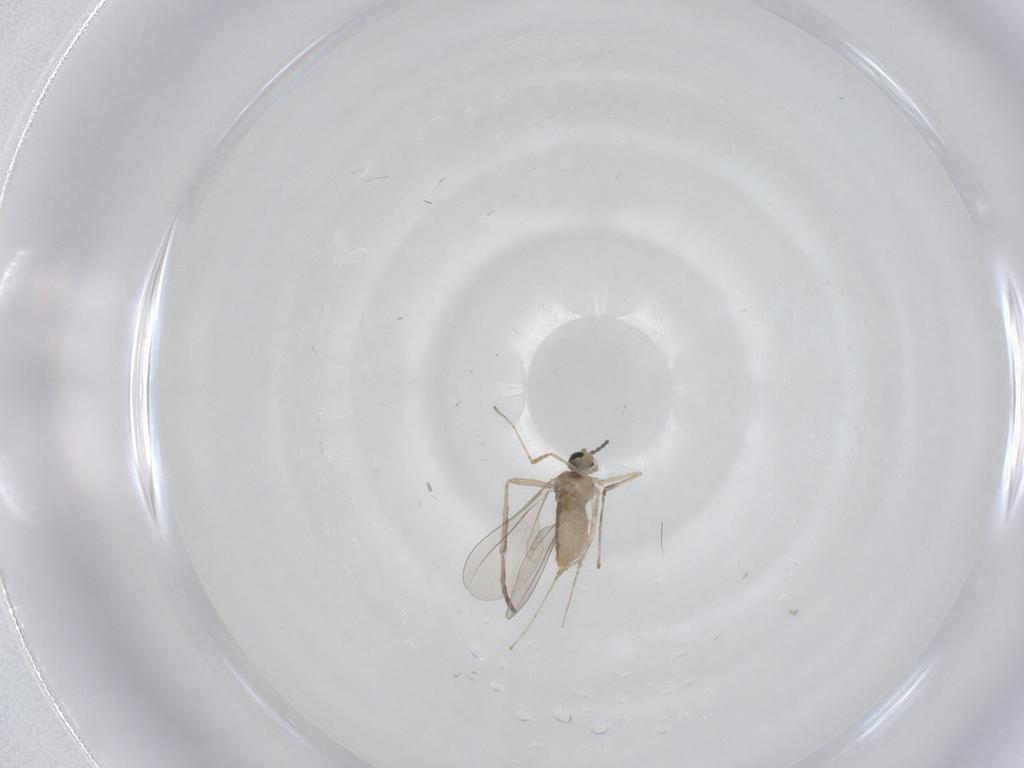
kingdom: Animalia
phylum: Arthropoda
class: Insecta
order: Diptera
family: Cecidomyiidae
